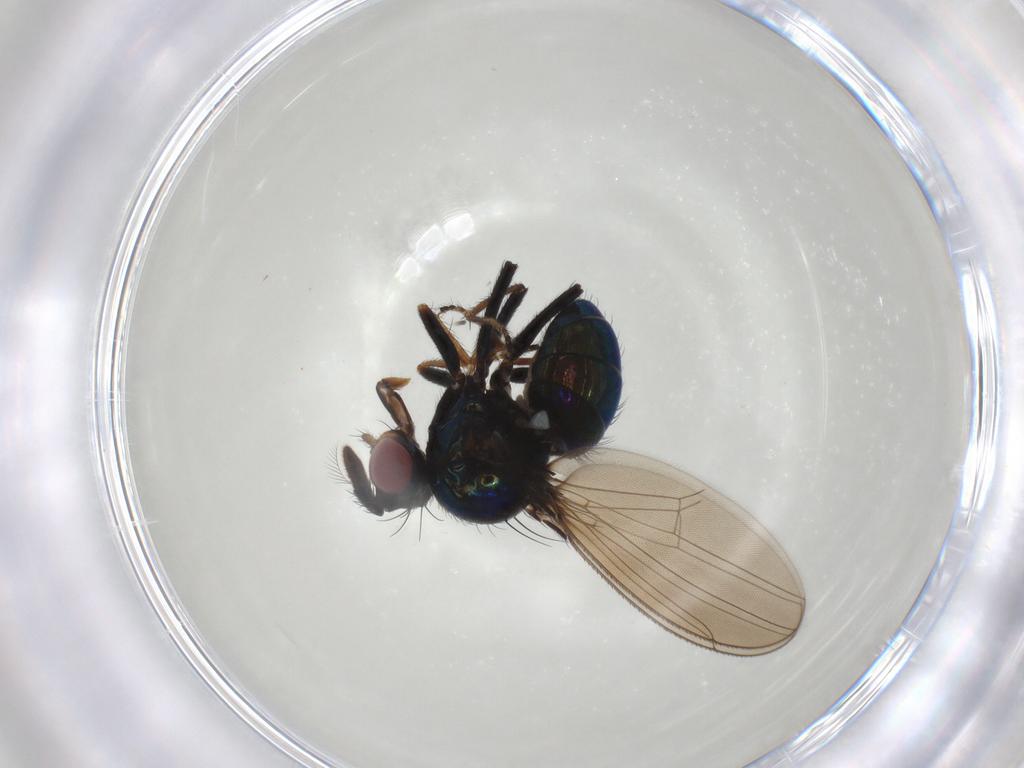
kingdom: Animalia
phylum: Arthropoda
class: Insecta
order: Diptera
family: Ephydridae
